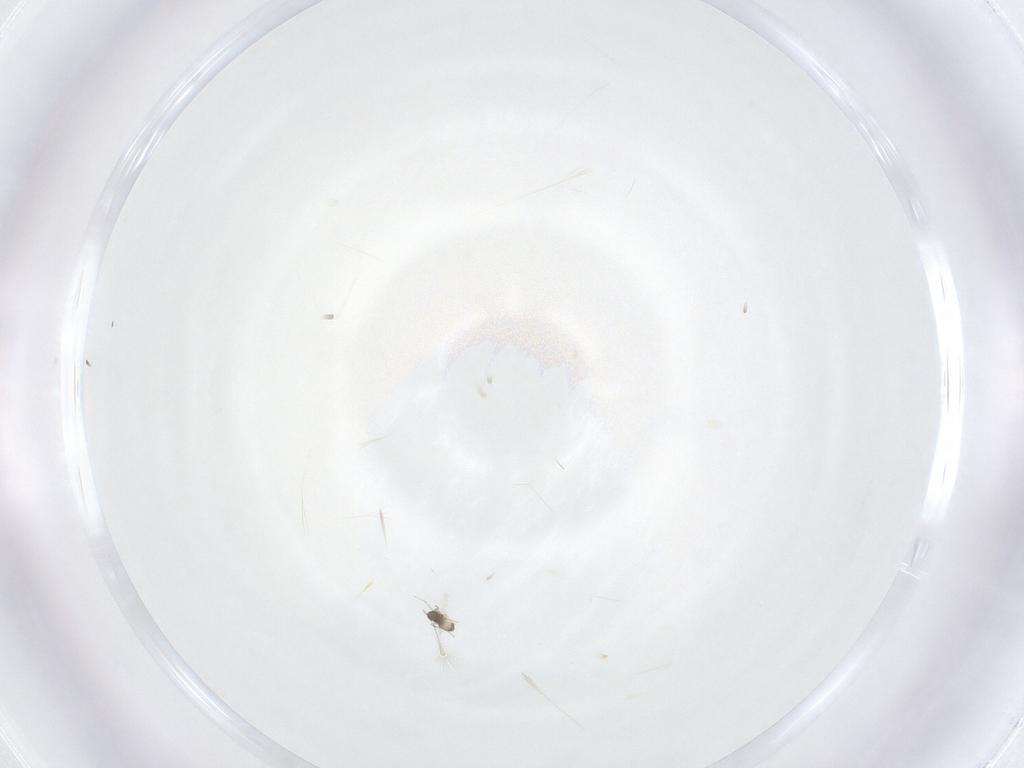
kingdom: Animalia
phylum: Arthropoda
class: Insecta
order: Hymenoptera
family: Mymaridae
